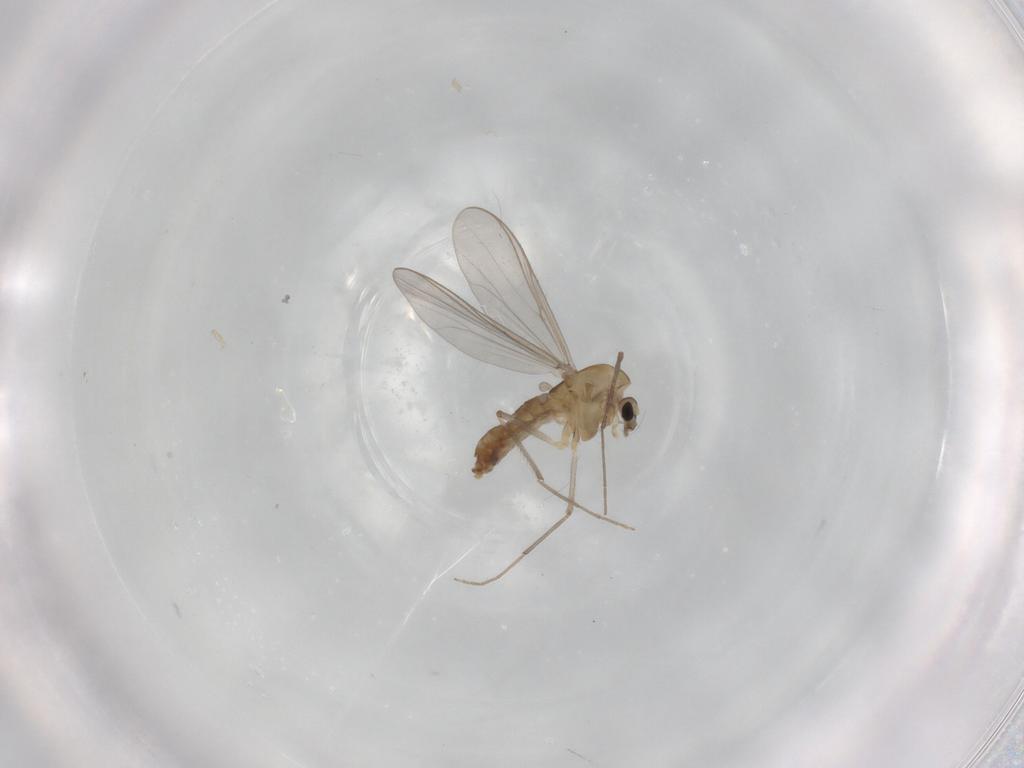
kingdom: Animalia
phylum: Arthropoda
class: Insecta
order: Diptera
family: Chironomidae
